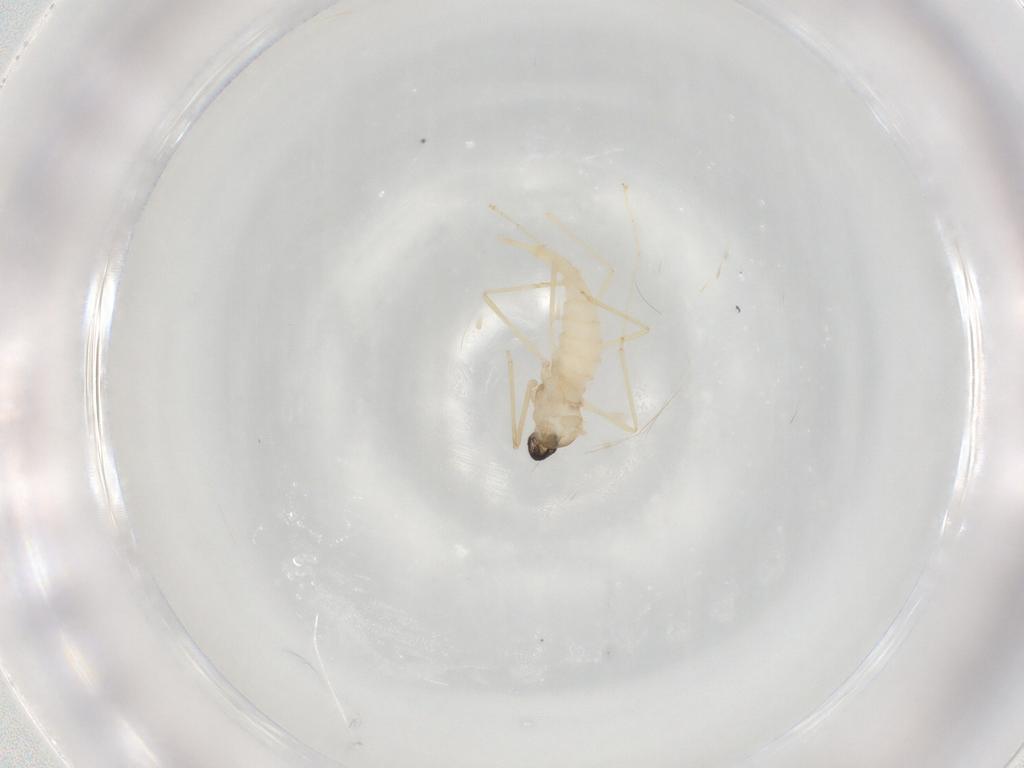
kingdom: Animalia
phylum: Arthropoda
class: Insecta
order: Diptera
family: Cecidomyiidae
